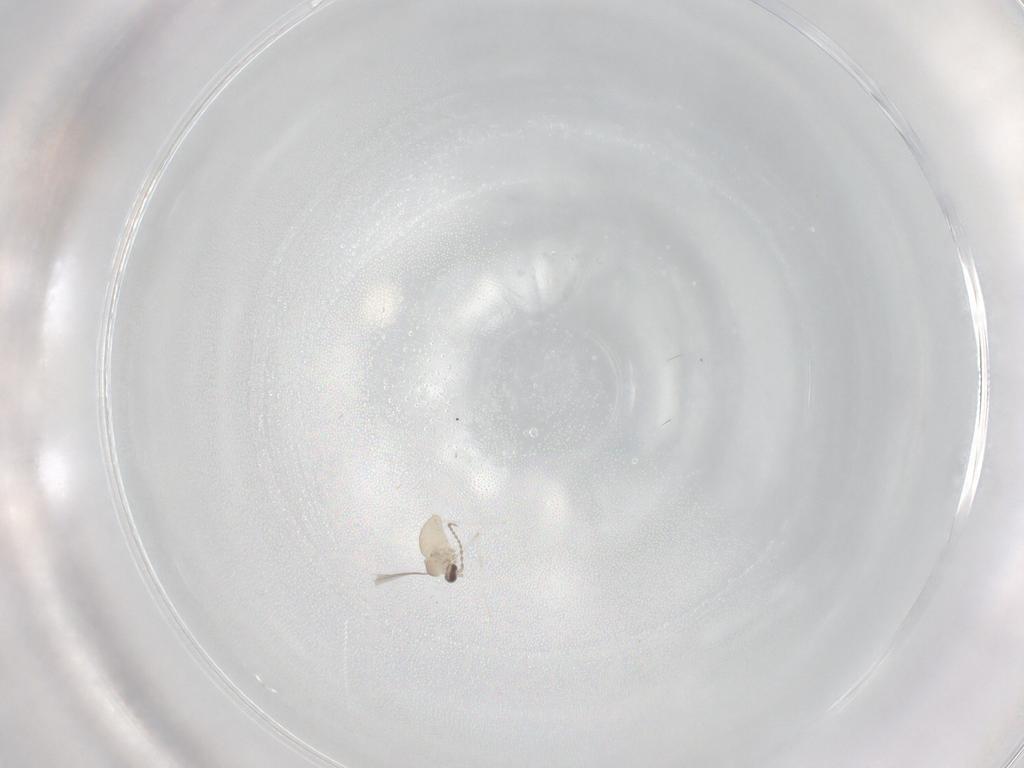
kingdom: Animalia
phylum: Arthropoda
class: Insecta
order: Diptera
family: Cecidomyiidae
